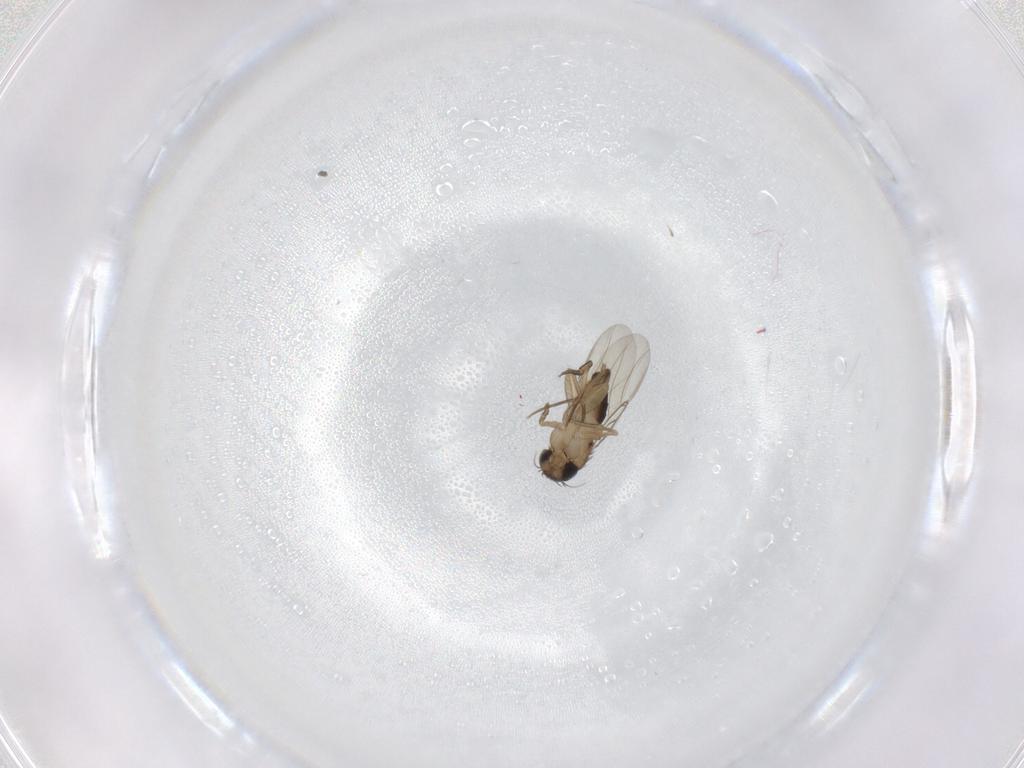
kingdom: Animalia
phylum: Arthropoda
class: Insecta
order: Diptera
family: Phoridae
